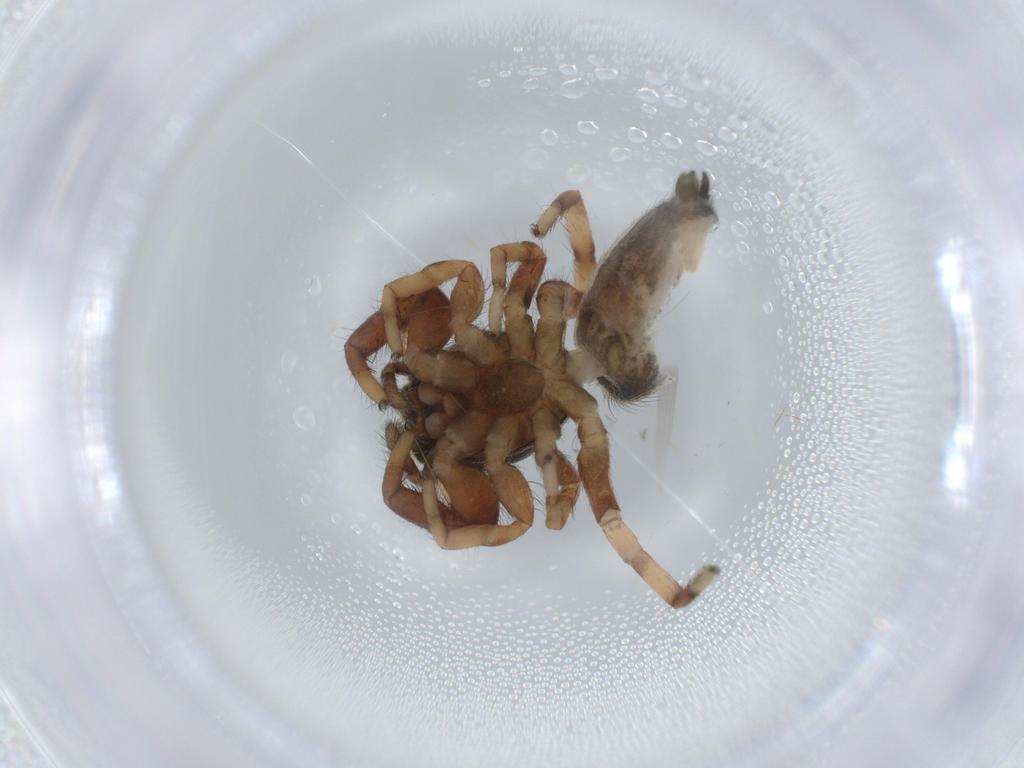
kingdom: Animalia
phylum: Arthropoda
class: Arachnida
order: Araneae
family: Salticidae
